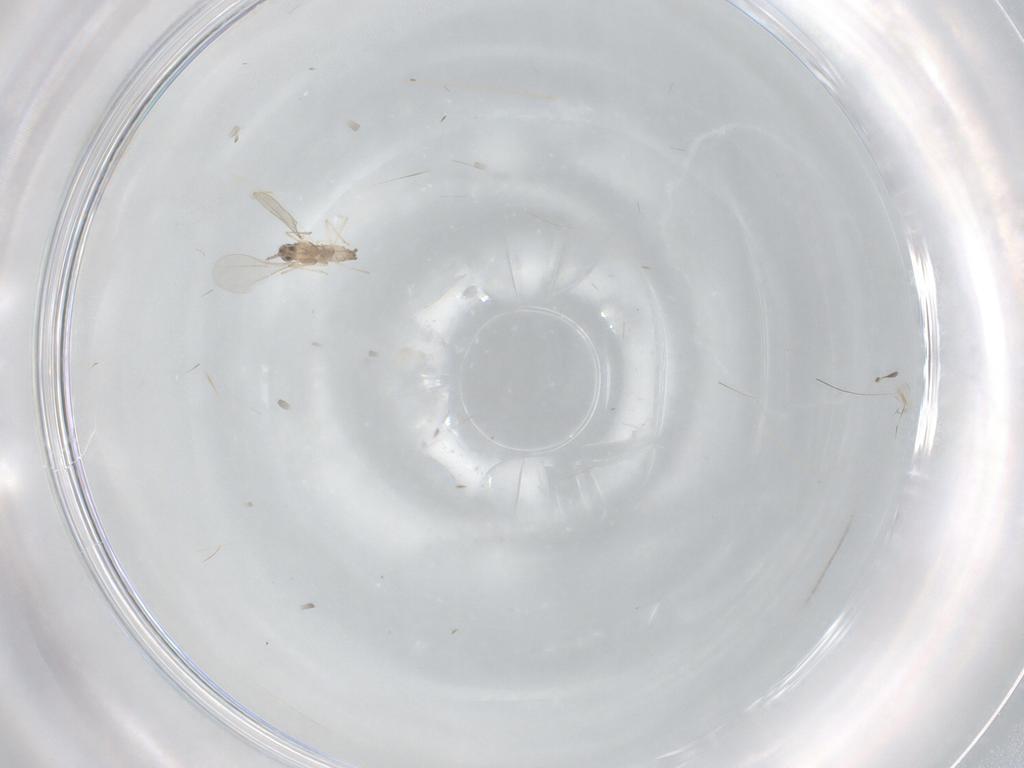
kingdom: Animalia
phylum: Arthropoda
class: Insecta
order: Diptera
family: Cecidomyiidae
